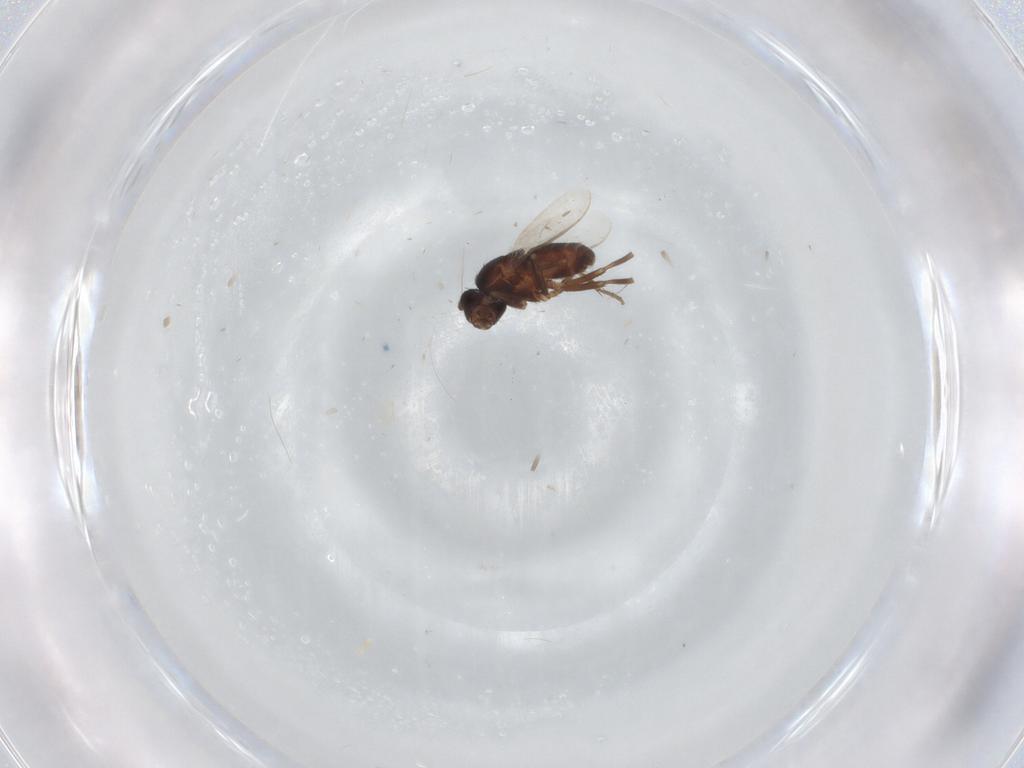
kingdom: Animalia
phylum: Arthropoda
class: Insecta
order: Diptera
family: Sphaeroceridae
